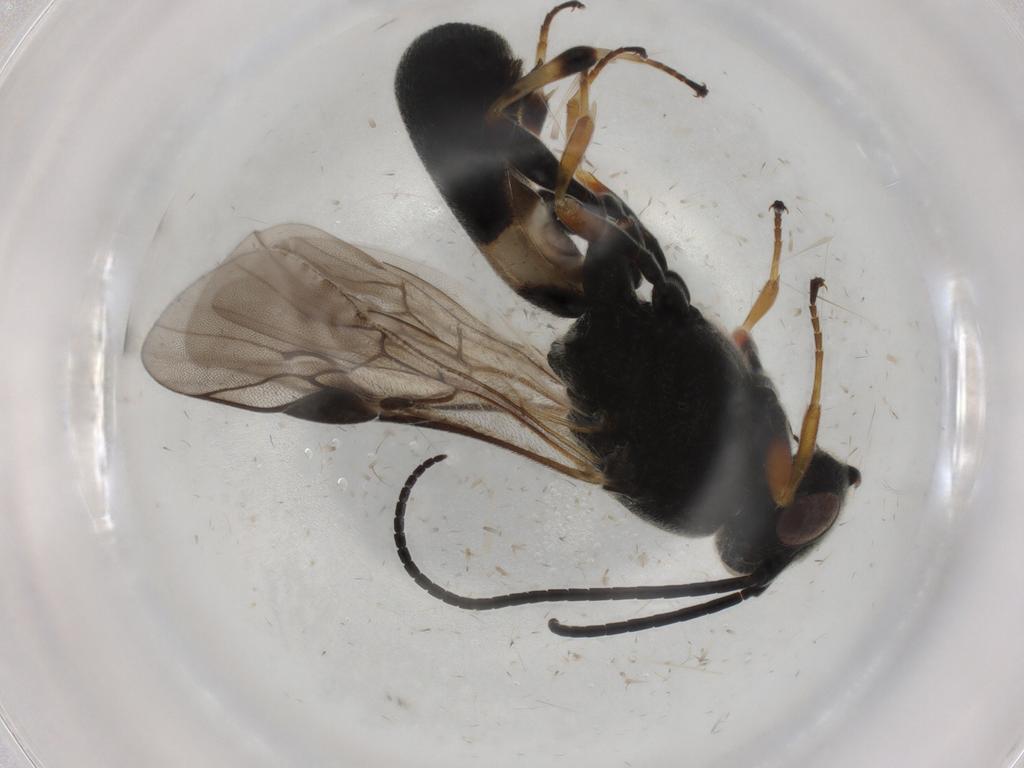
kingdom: Animalia
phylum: Arthropoda
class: Insecta
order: Hymenoptera
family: Braconidae
